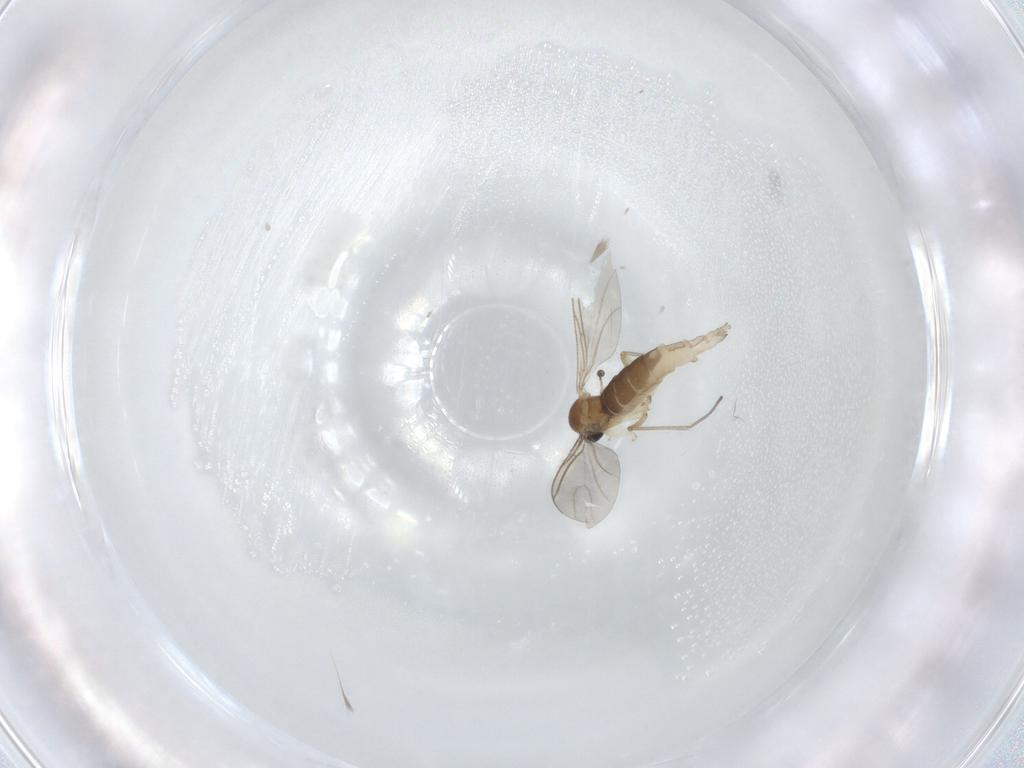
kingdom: Animalia
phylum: Arthropoda
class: Insecta
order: Diptera
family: Sciaridae
